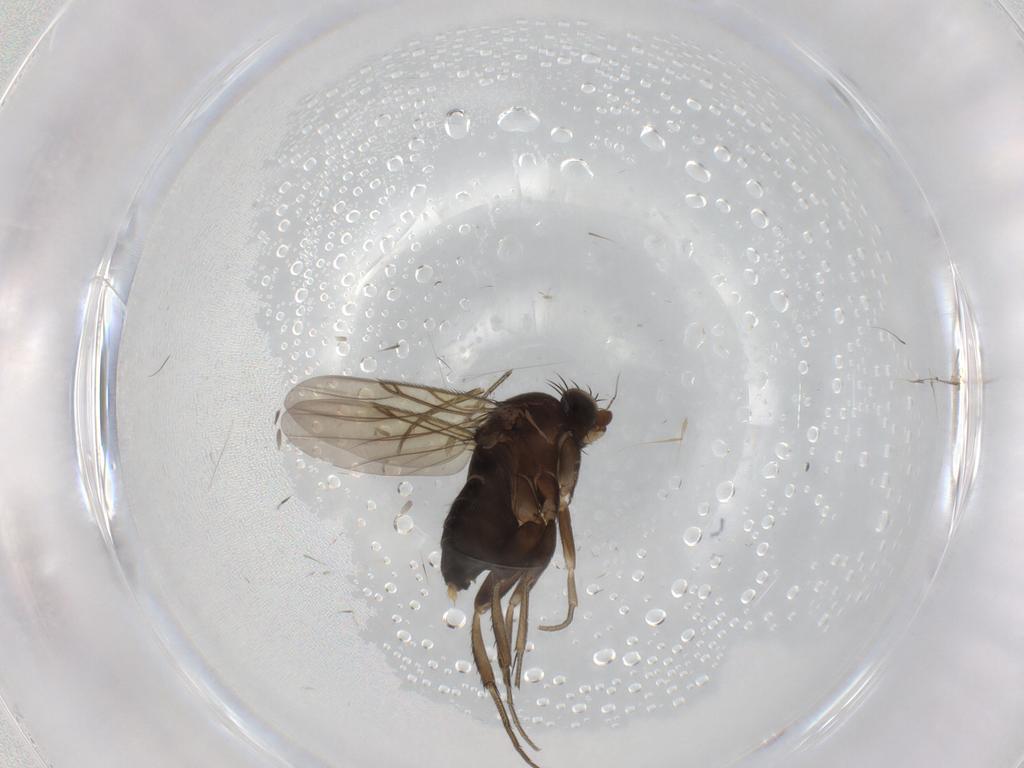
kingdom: Animalia
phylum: Arthropoda
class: Insecta
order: Diptera
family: Phoridae
